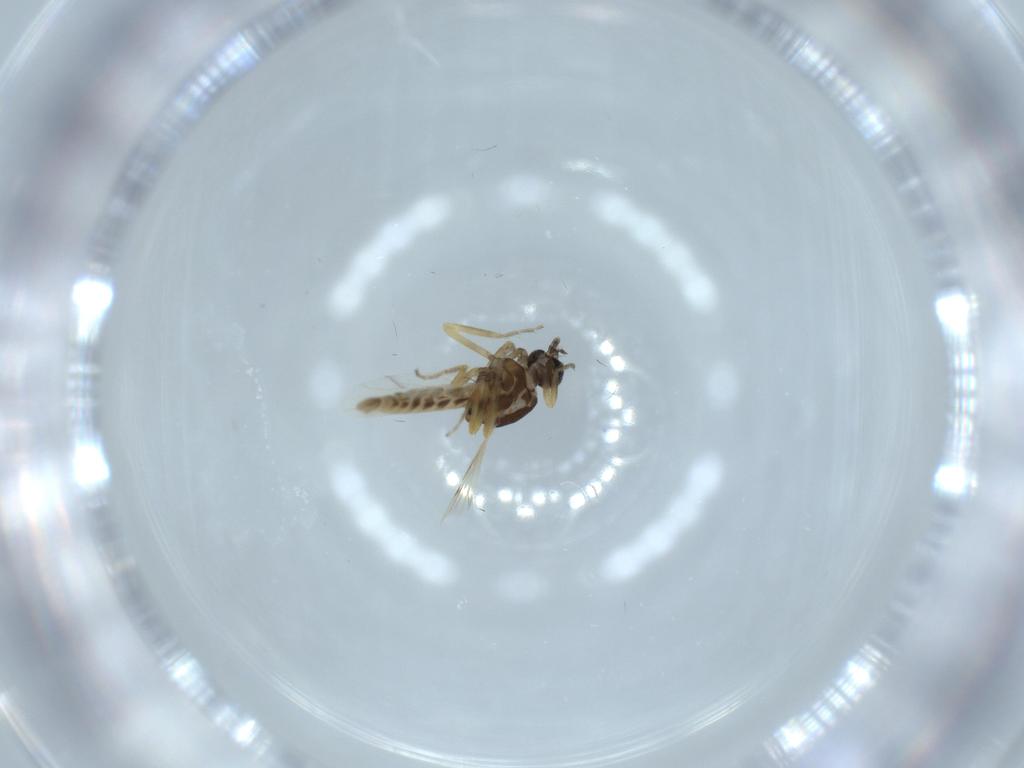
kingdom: Animalia
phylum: Arthropoda
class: Insecta
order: Diptera
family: Ceratopogonidae
